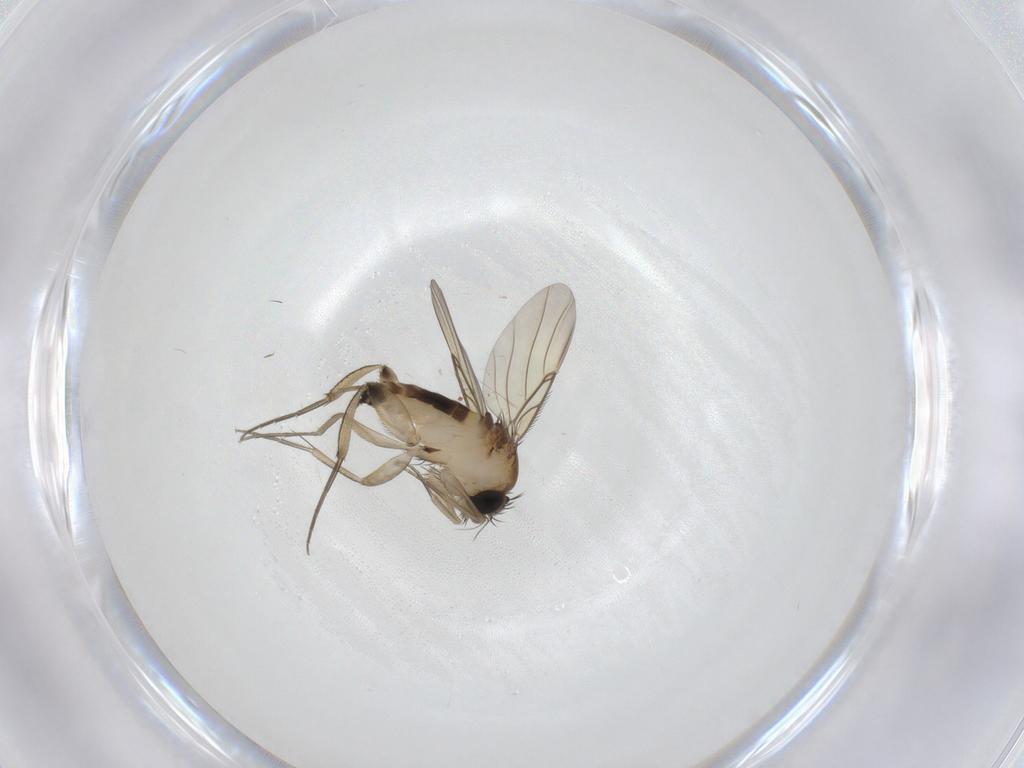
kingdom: Animalia
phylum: Arthropoda
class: Insecta
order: Diptera
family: Phoridae
